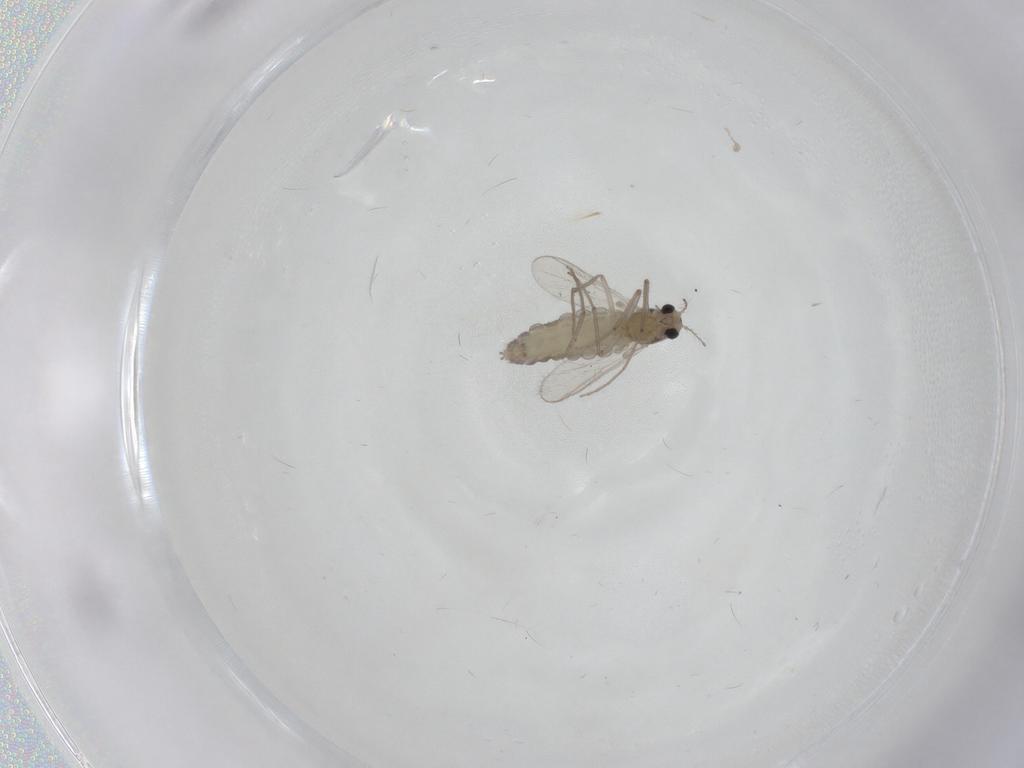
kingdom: Animalia
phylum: Arthropoda
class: Insecta
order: Diptera
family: Chironomidae
